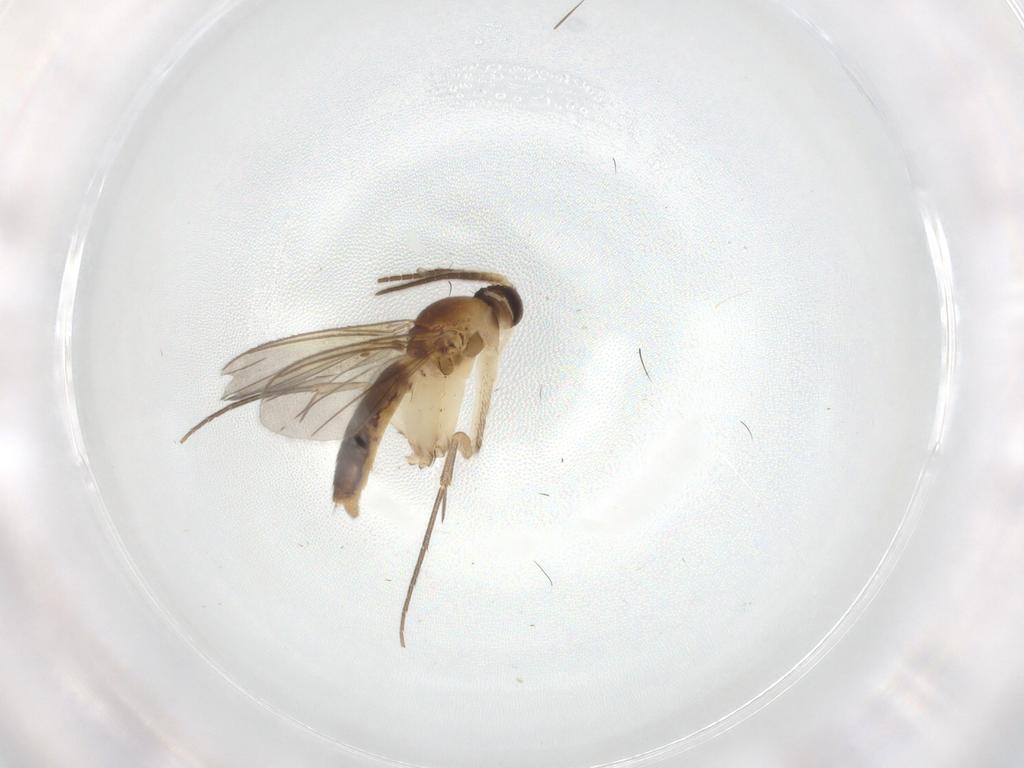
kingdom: Animalia
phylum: Arthropoda
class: Insecta
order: Diptera
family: Mycetophilidae
